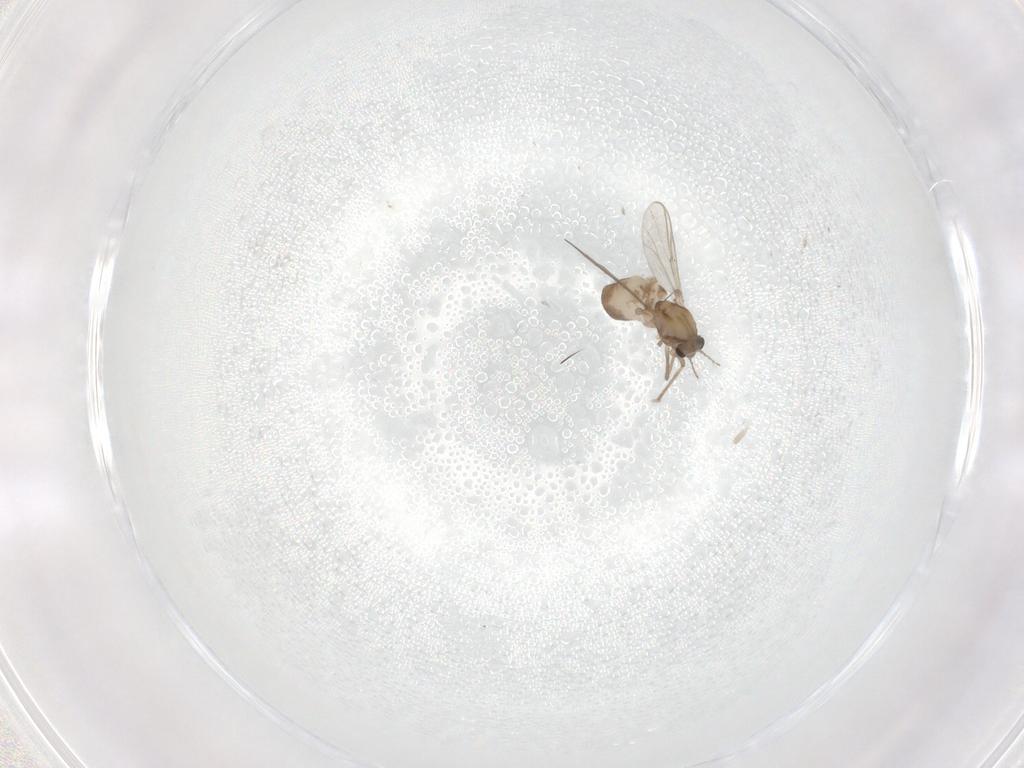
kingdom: Animalia
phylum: Arthropoda
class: Insecta
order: Diptera
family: Chironomidae
